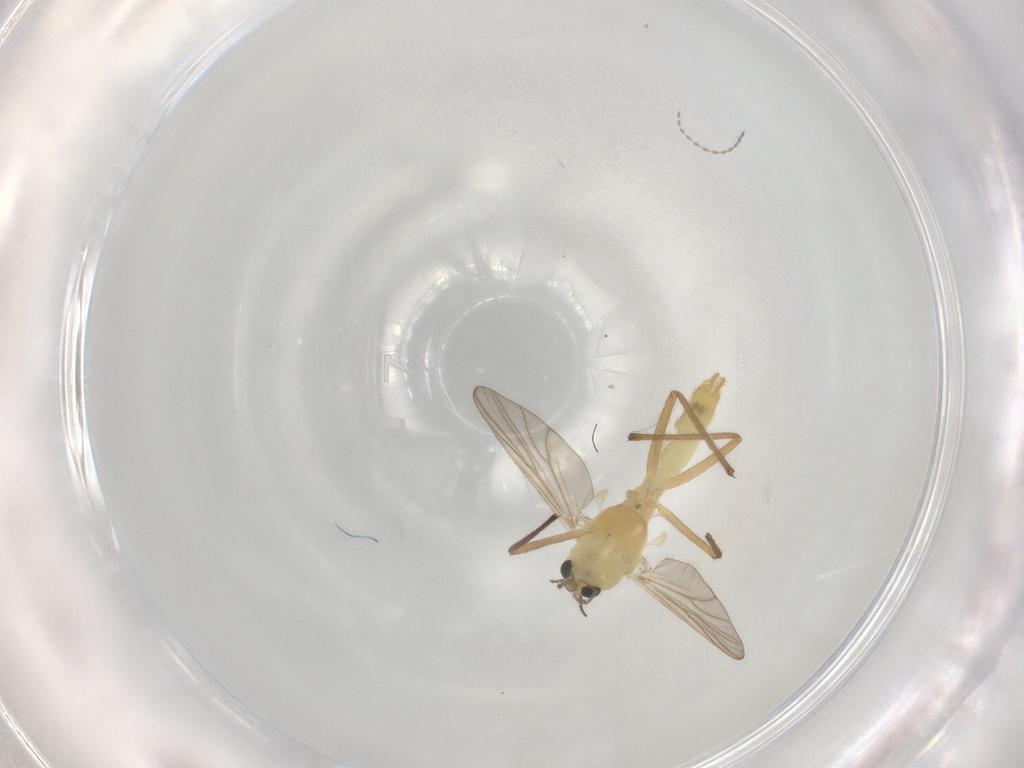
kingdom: Animalia
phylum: Arthropoda
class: Insecta
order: Diptera
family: Chironomidae
